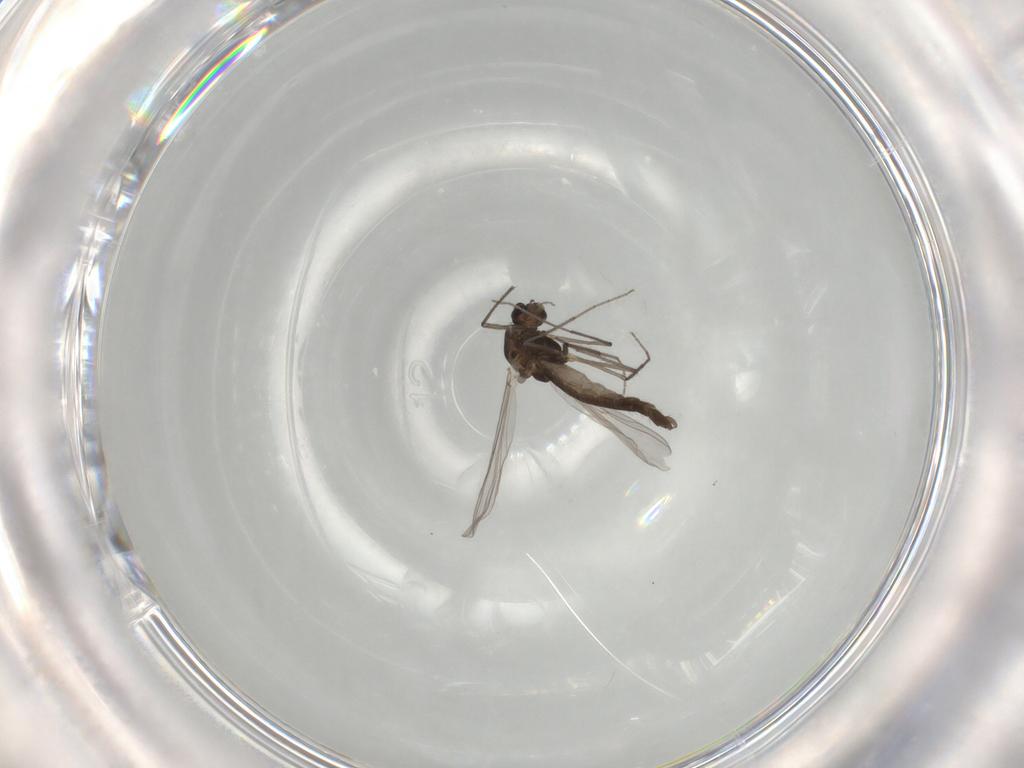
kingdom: Animalia
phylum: Arthropoda
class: Insecta
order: Diptera
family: Chironomidae
